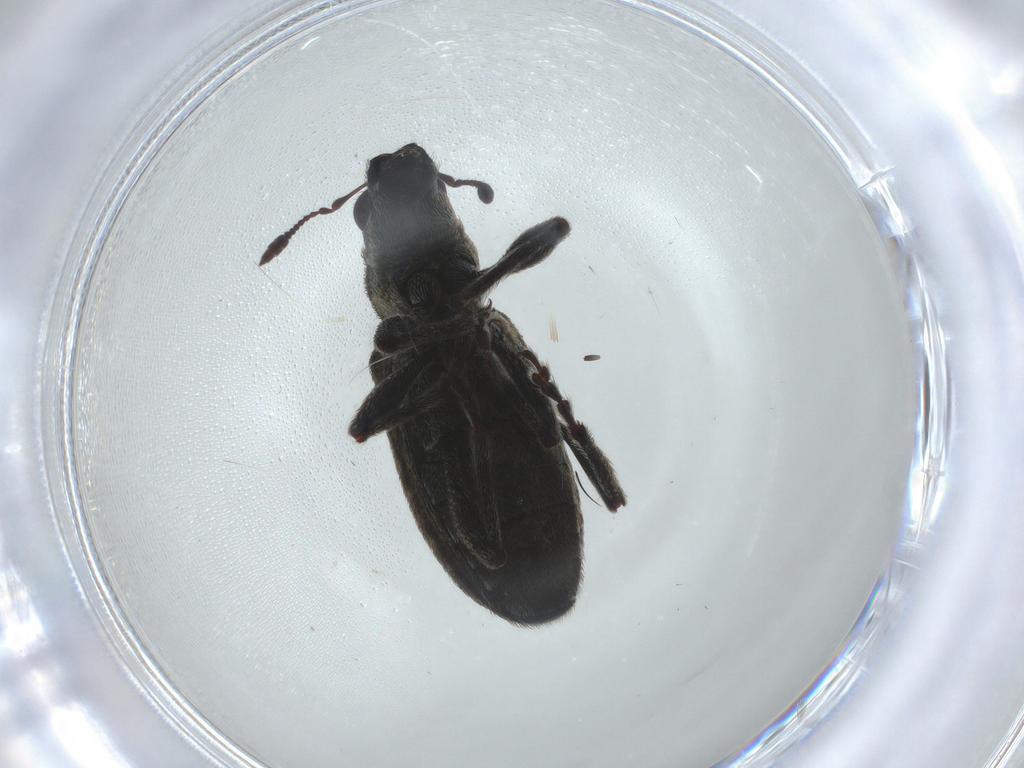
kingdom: Animalia
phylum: Arthropoda
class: Insecta
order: Coleoptera
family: Curculionidae
